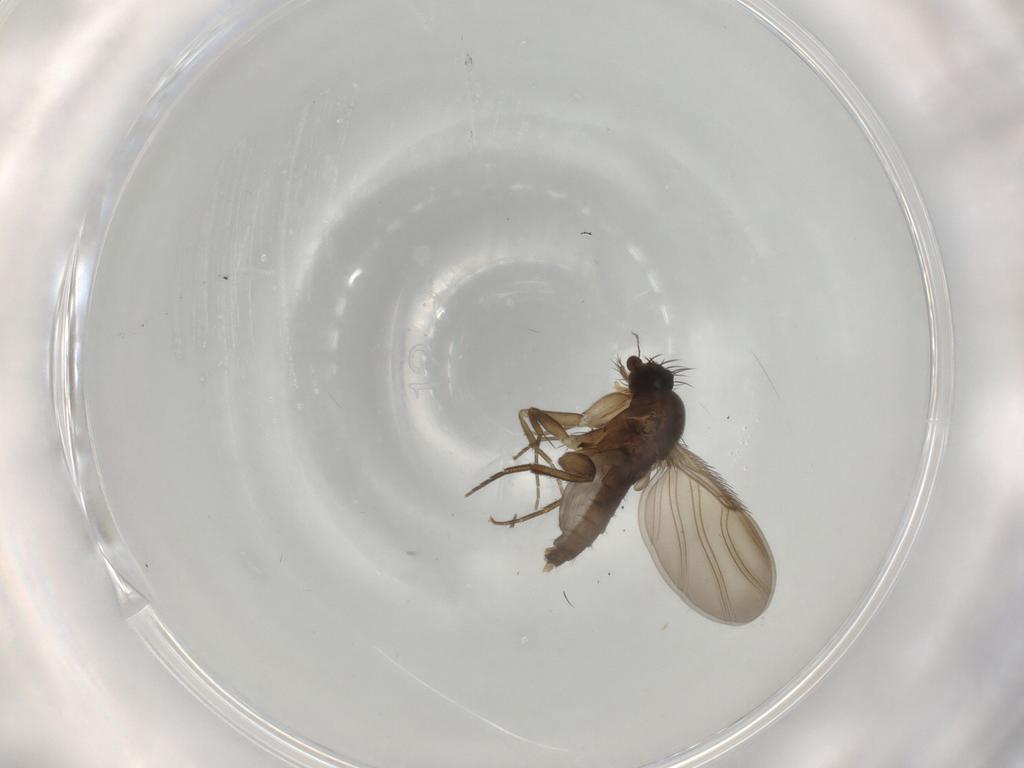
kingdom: Animalia
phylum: Arthropoda
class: Insecta
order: Diptera
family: Phoridae
